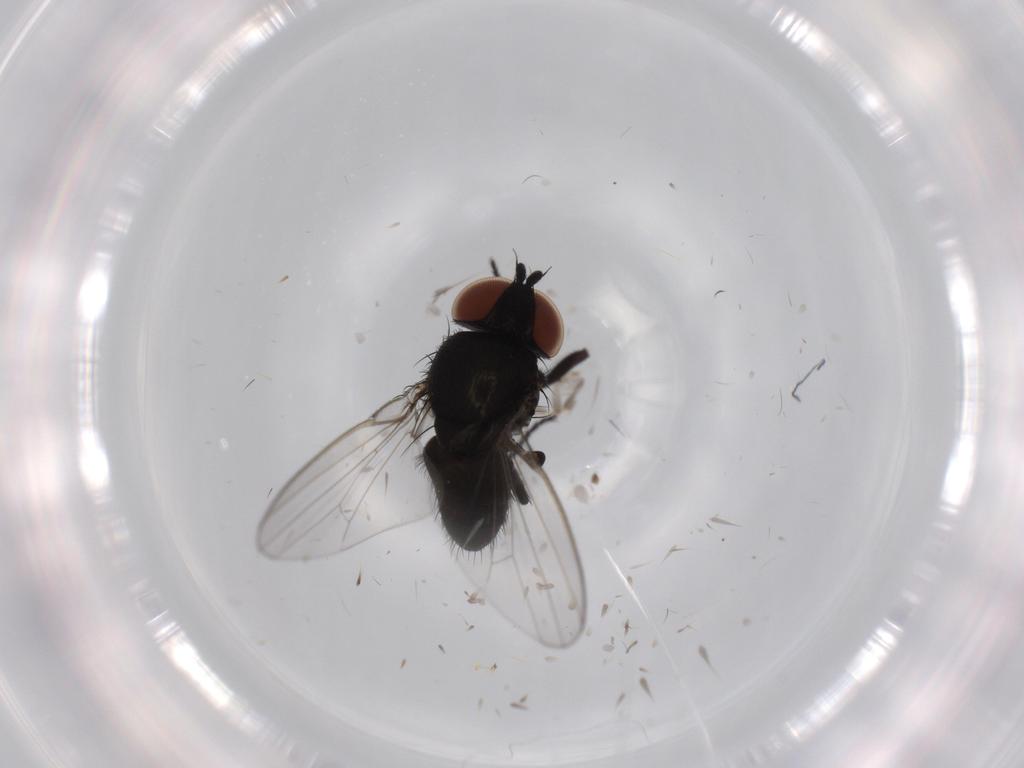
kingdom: Animalia
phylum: Arthropoda
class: Insecta
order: Diptera
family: Milichiidae
